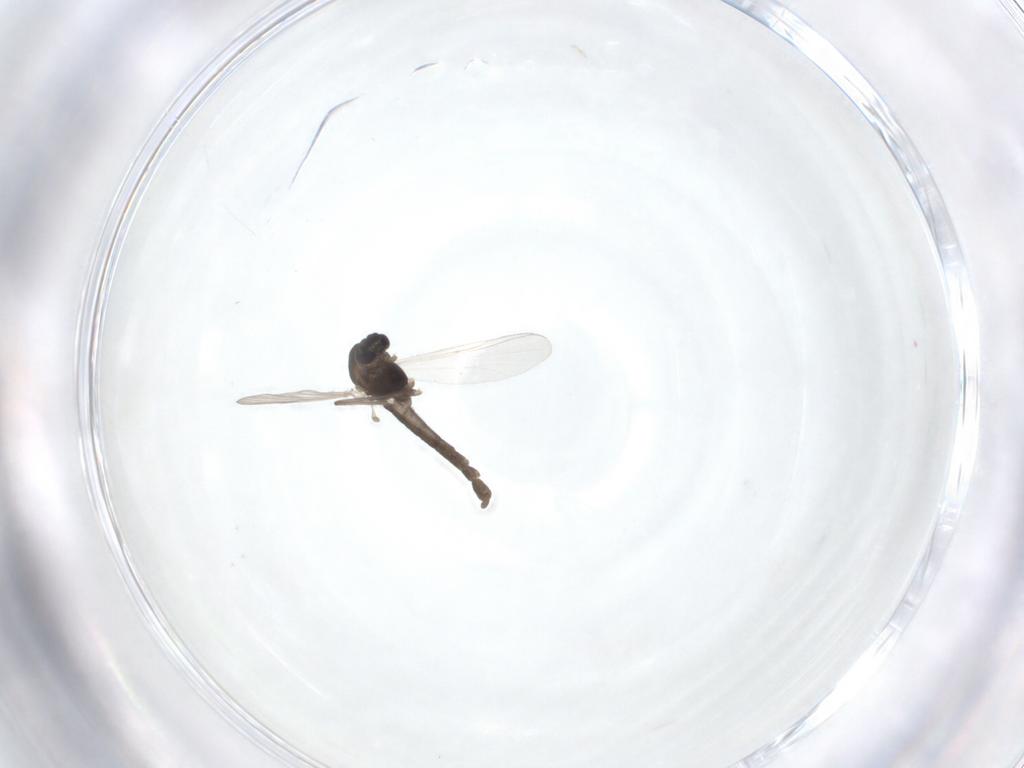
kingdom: Animalia
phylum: Arthropoda
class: Insecta
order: Diptera
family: Chironomidae
